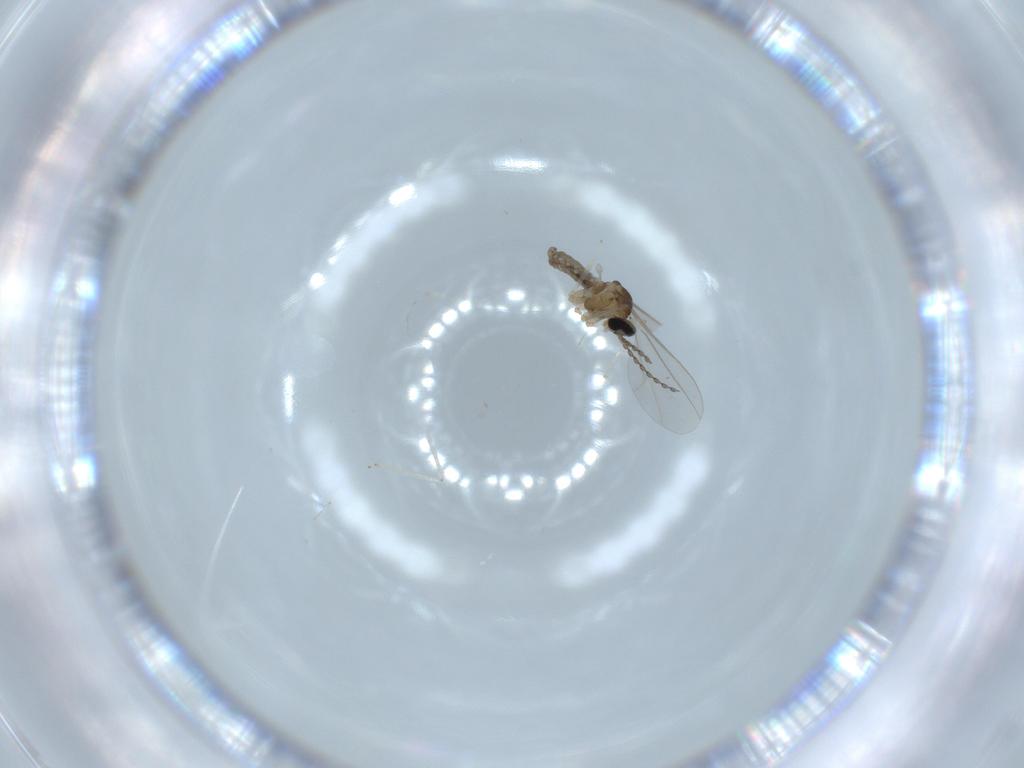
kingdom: Animalia
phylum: Arthropoda
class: Insecta
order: Diptera
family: Cecidomyiidae
